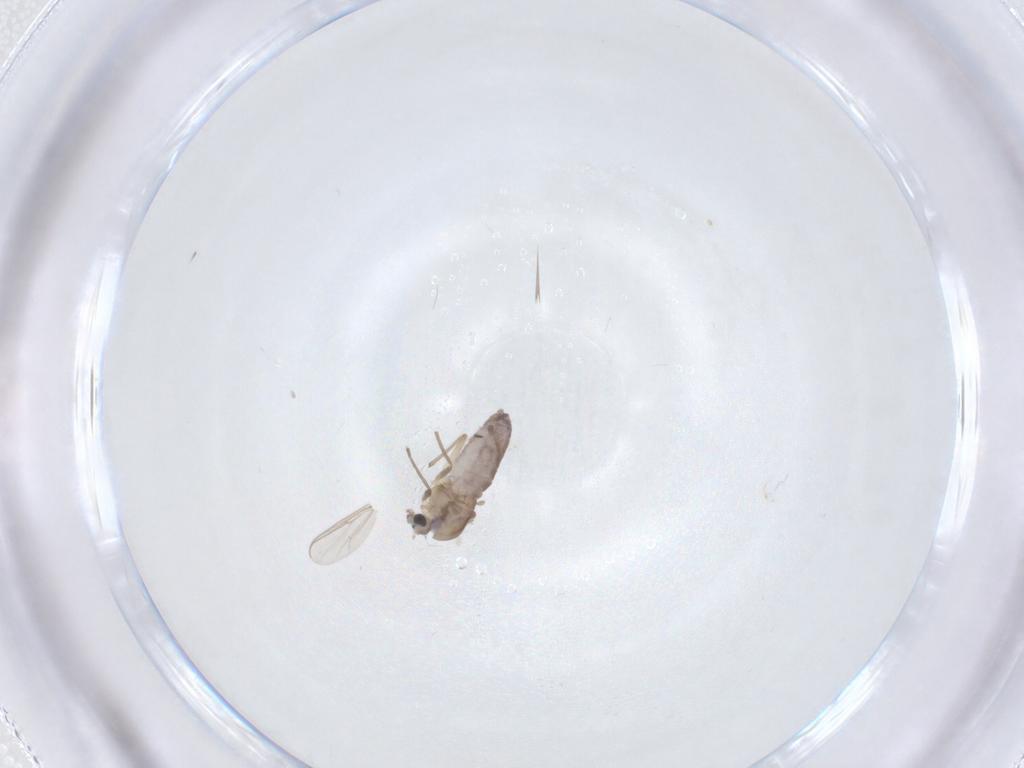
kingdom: Animalia
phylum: Arthropoda
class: Insecta
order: Diptera
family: Chironomidae
